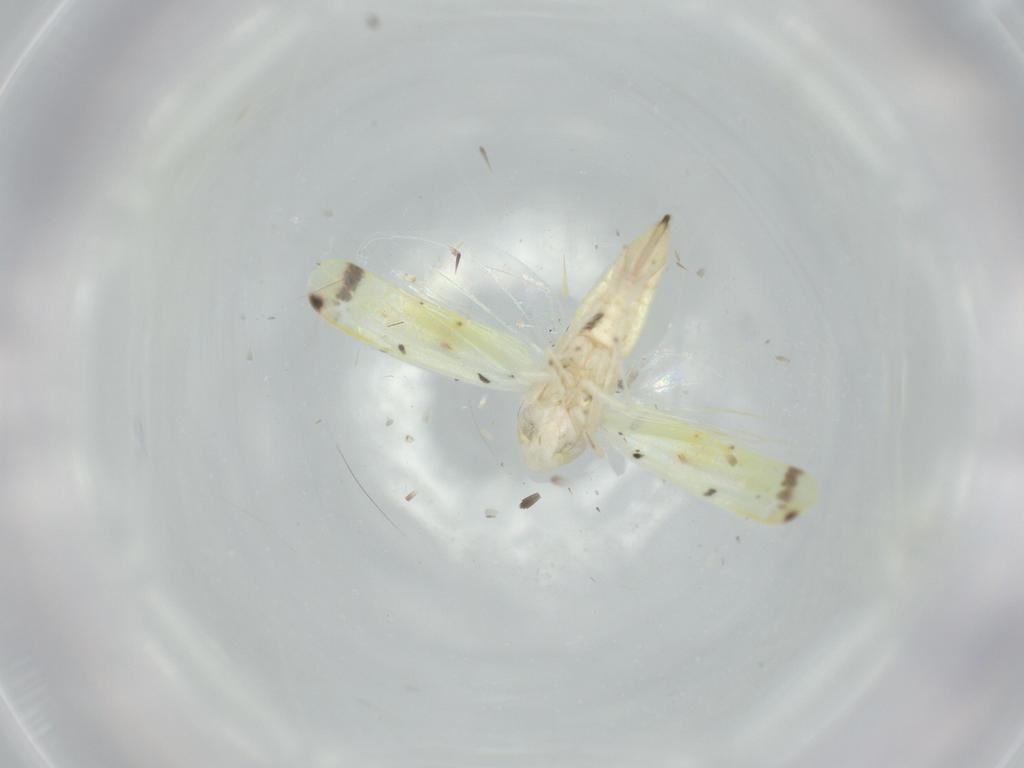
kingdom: Animalia
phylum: Arthropoda
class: Insecta
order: Hemiptera
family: Cicadellidae
